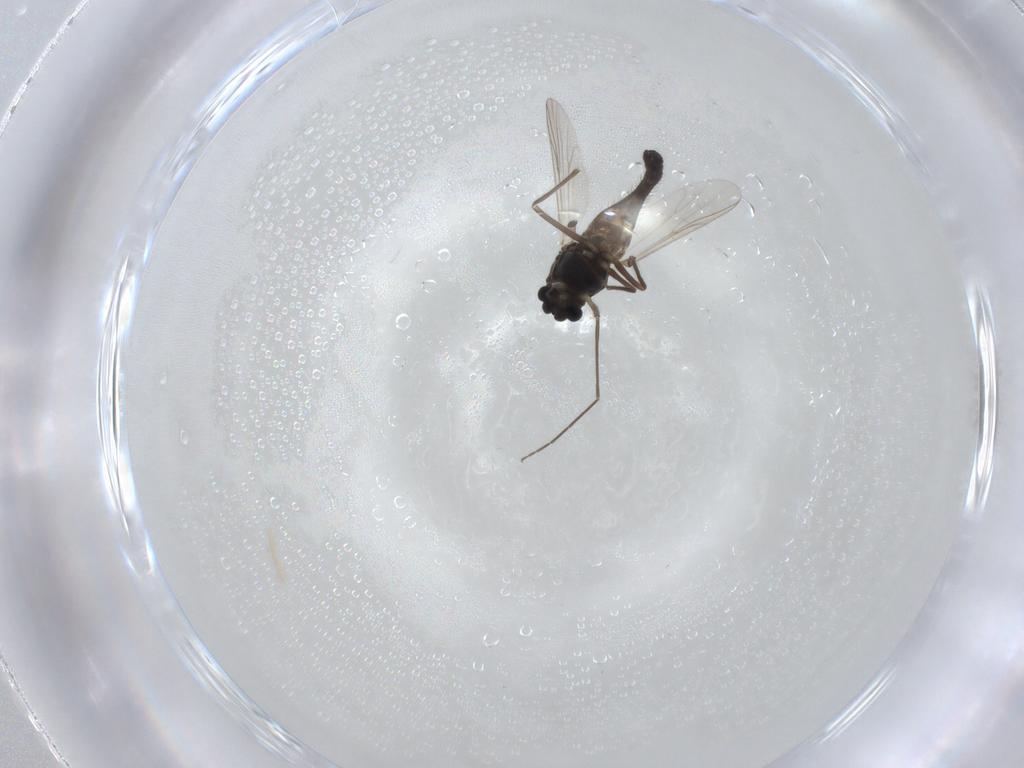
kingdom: Animalia
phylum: Arthropoda
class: Insecta
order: Diptera
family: Chironomidae
